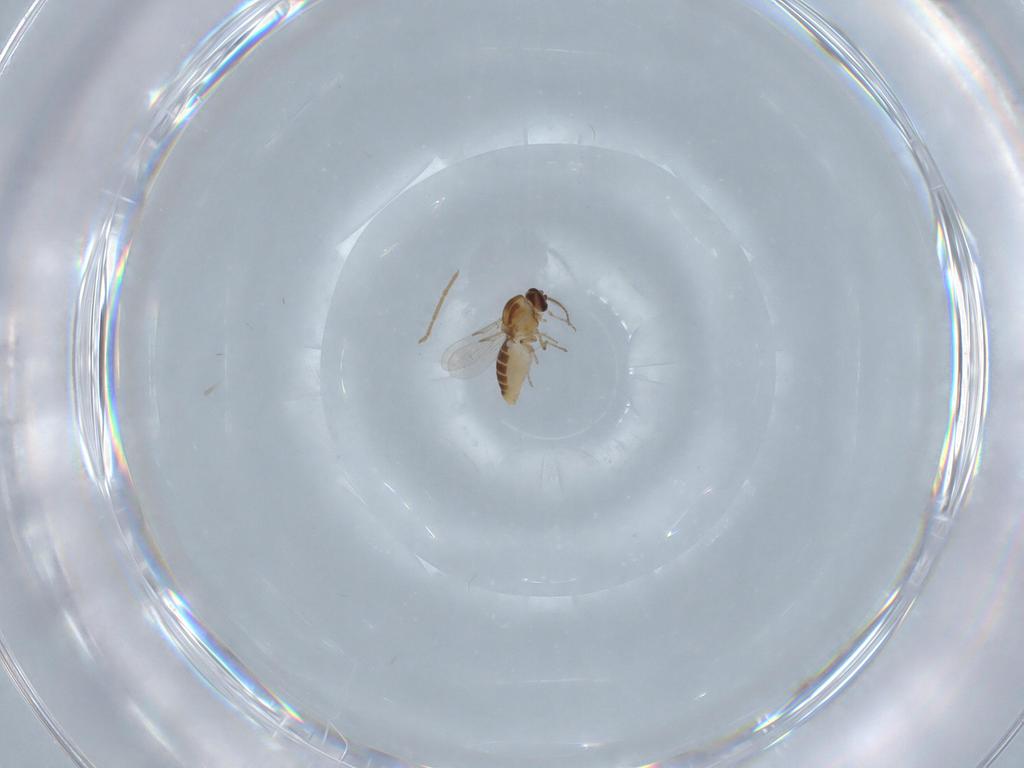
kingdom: Animalia
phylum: Arthropoda
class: Insecta
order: Diptera
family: Ceratopogonidae
